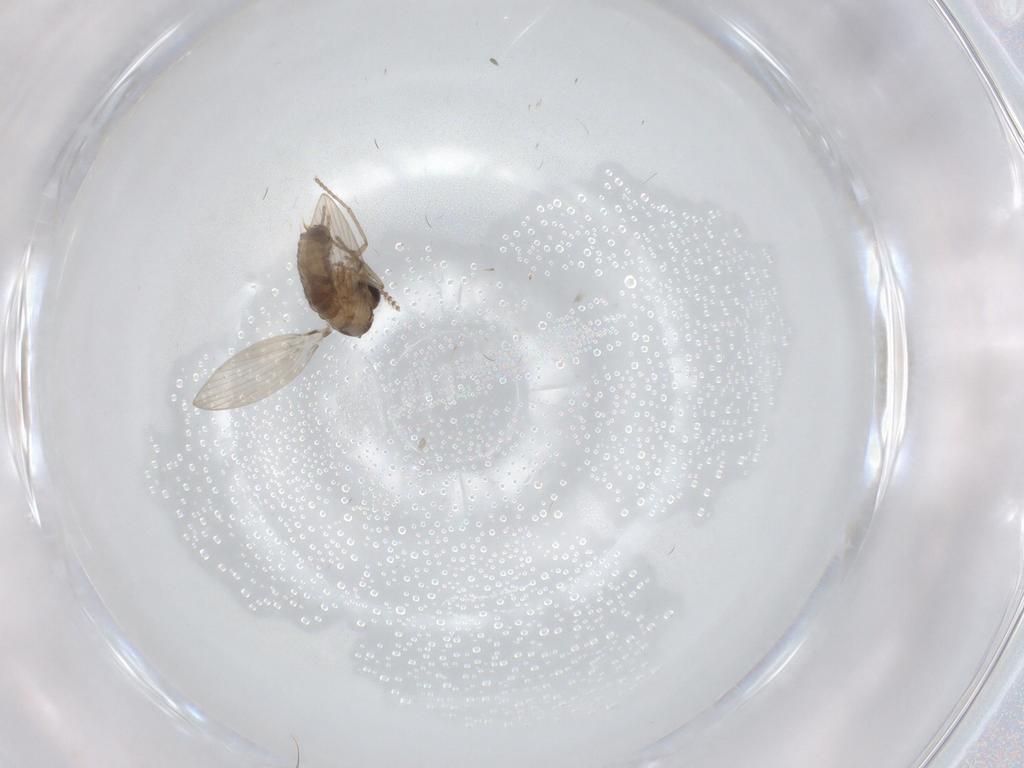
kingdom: Animalia
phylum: Arthropoda
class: Insecta
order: Diptera
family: Psychodidae
